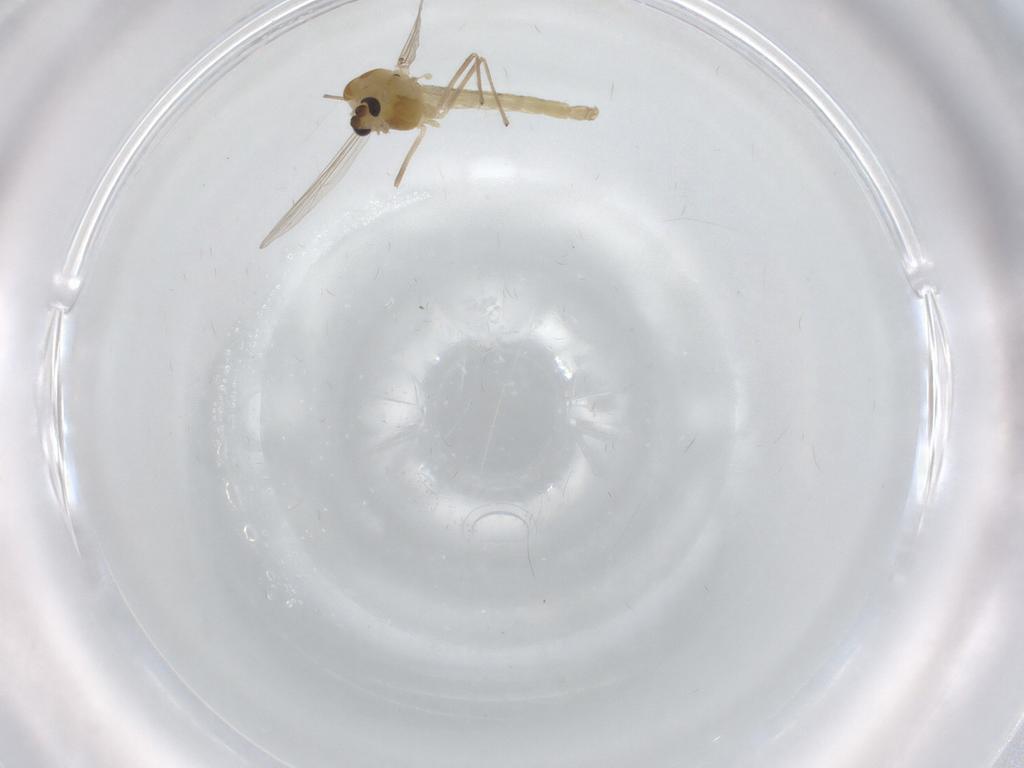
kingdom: Animalia
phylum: Arthropoda
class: Insecta
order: Diptera
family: Chironomidae
